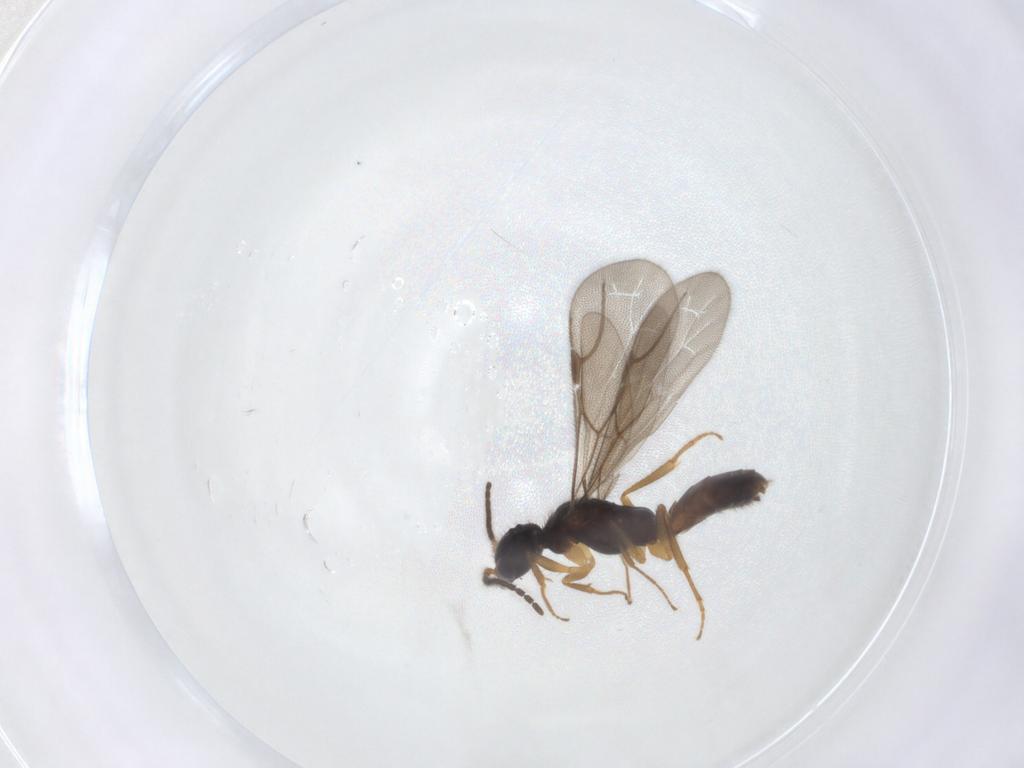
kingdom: Animalia
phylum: Arthropoda
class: Insecta
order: Hymenoptera
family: Bethylidae
